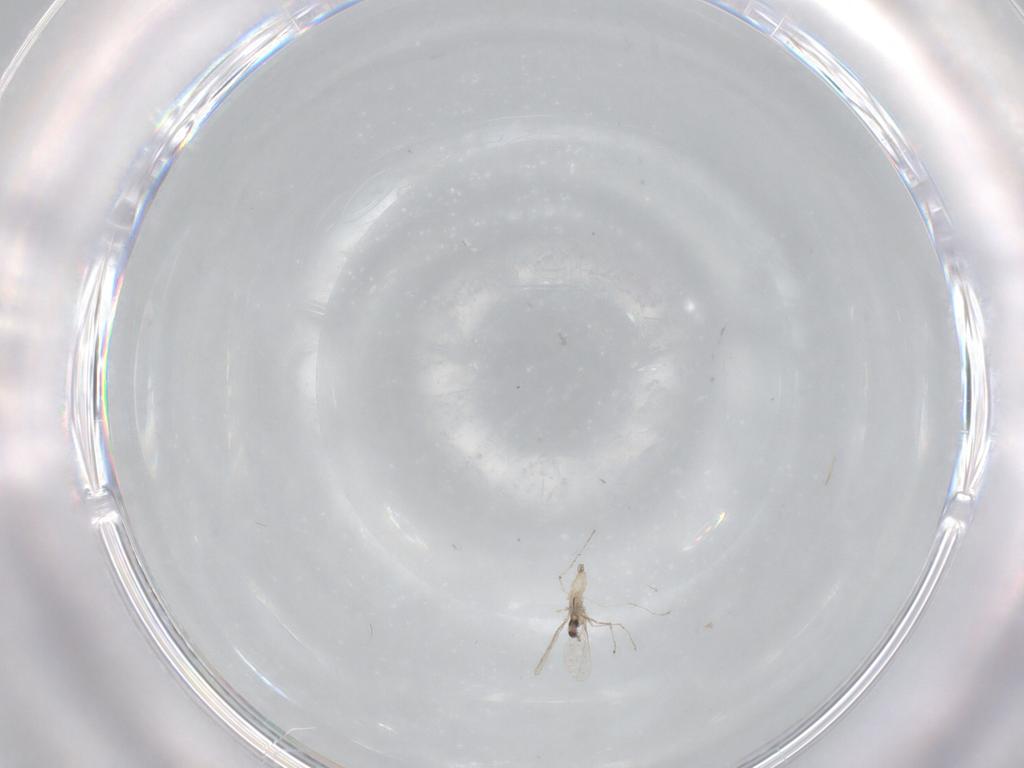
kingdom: Animalia
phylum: Arthropoda
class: Insecta
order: Diptera
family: Cecidomyiidae
